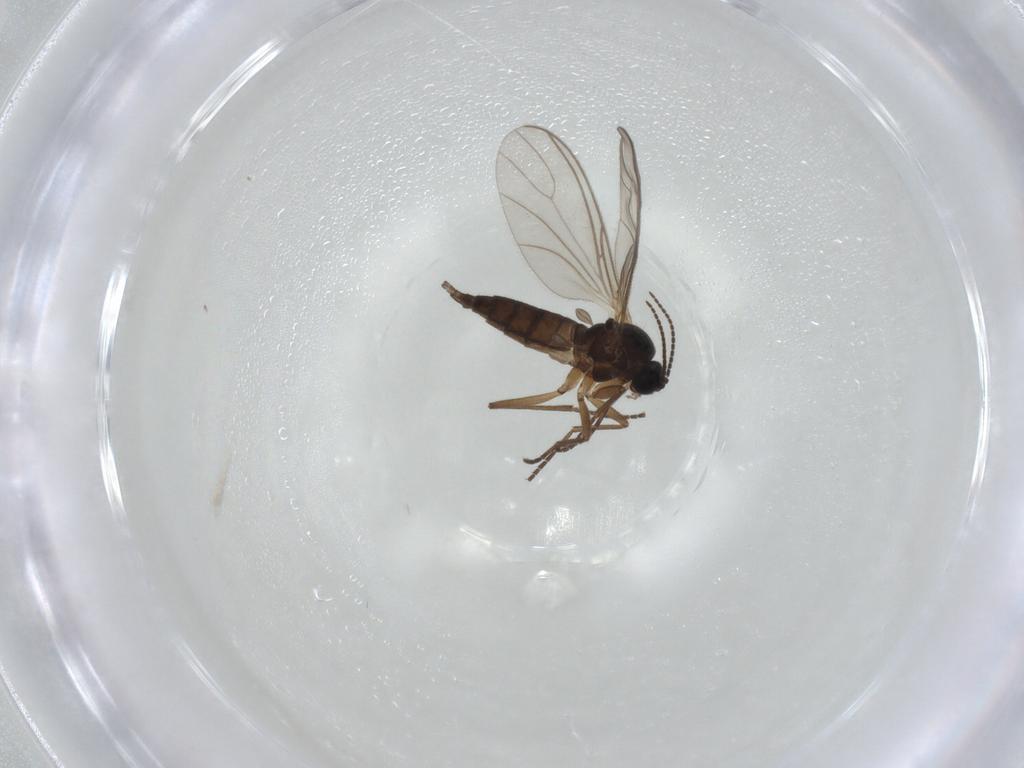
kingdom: Animalia
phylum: Arthropoda
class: Insecta
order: Diptera
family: Sciaridae
